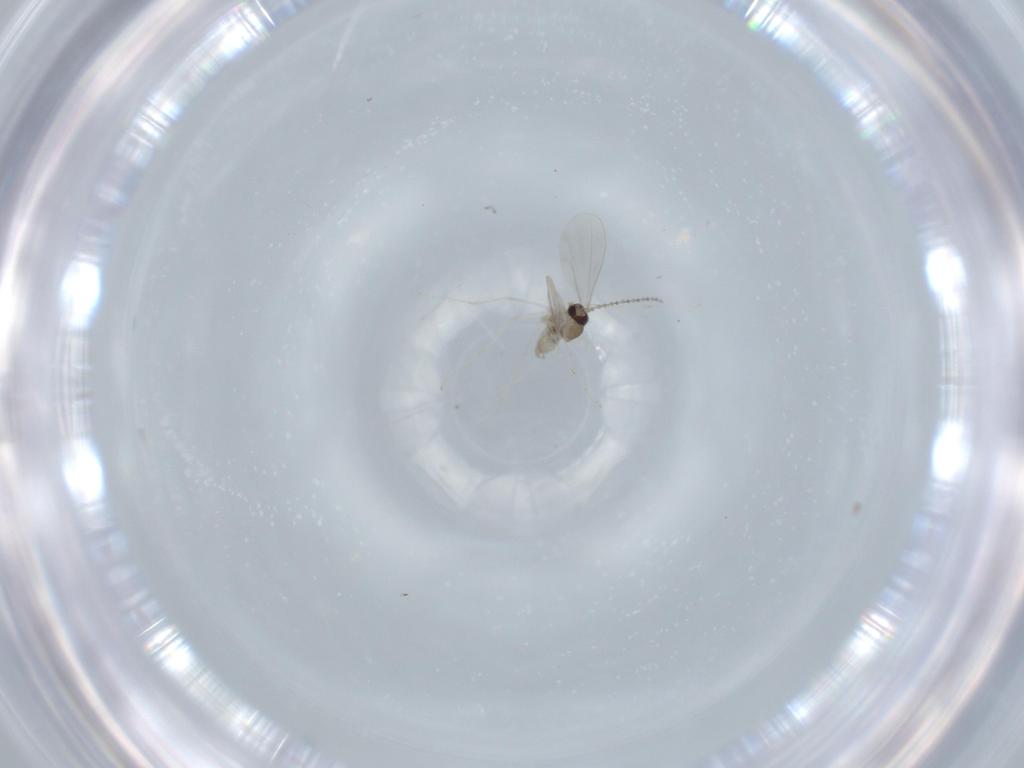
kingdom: Animalia
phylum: Arthropoda
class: Insecta
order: Diptera
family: Cecidomyiidae
